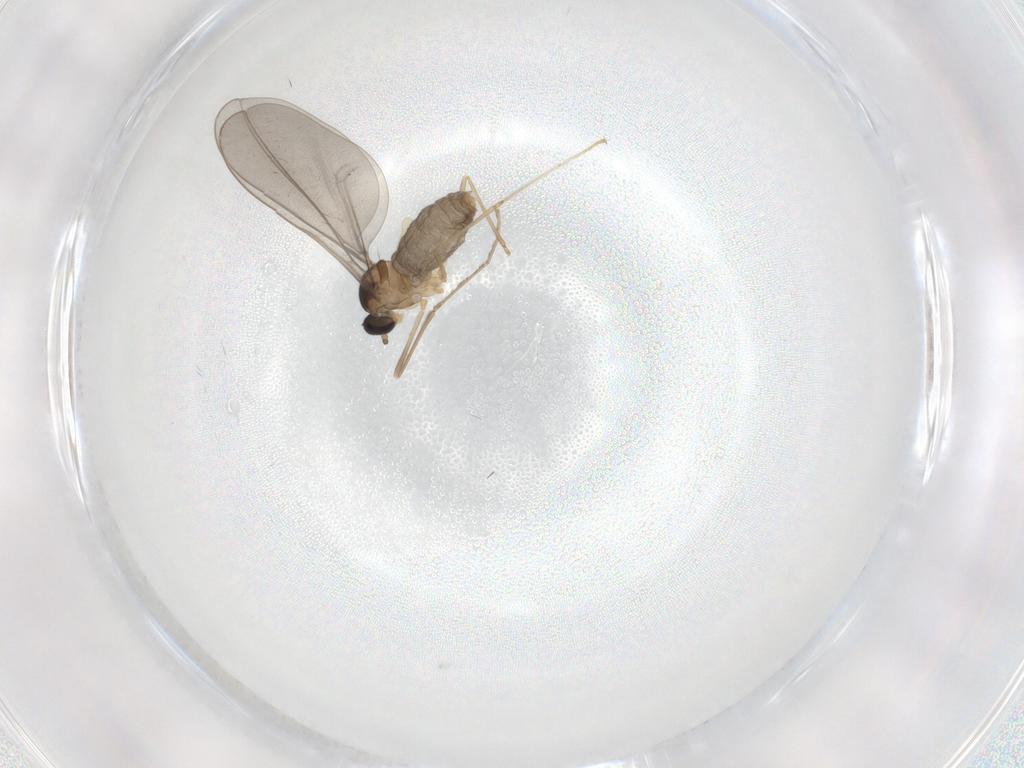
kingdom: Animalia
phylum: Arthropoda
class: Insecta
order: Diptera
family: Cecidomyiidae
